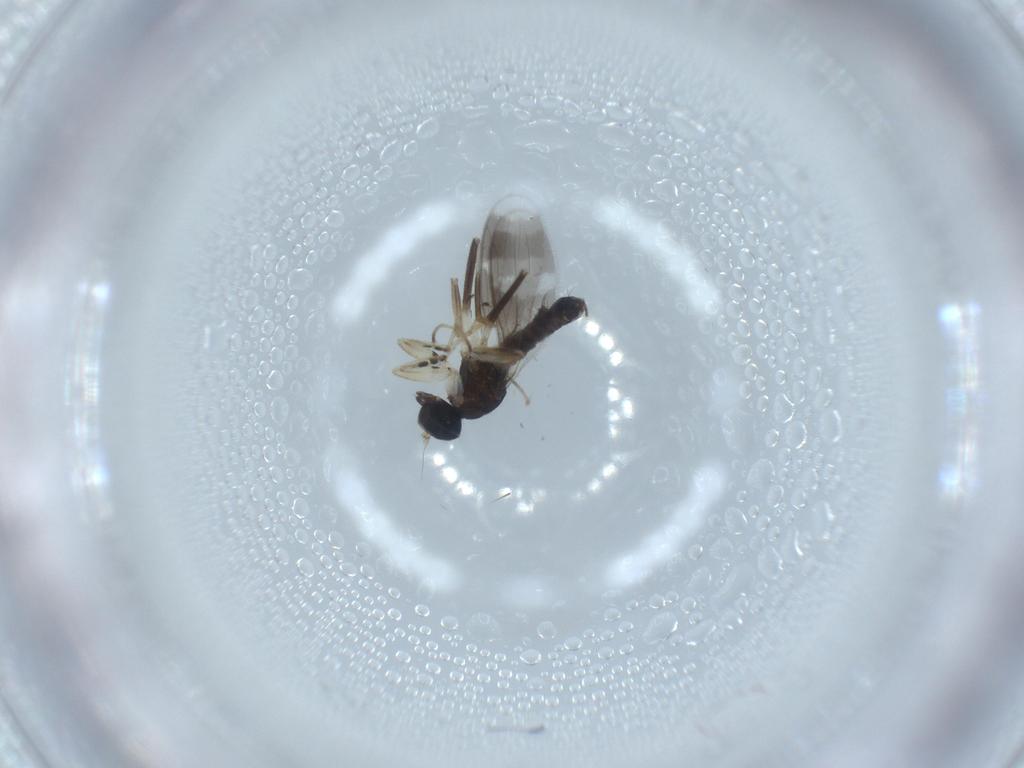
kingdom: Animalia
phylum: Arthropoda
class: Insecta
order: Diptera
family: Hybotidae
